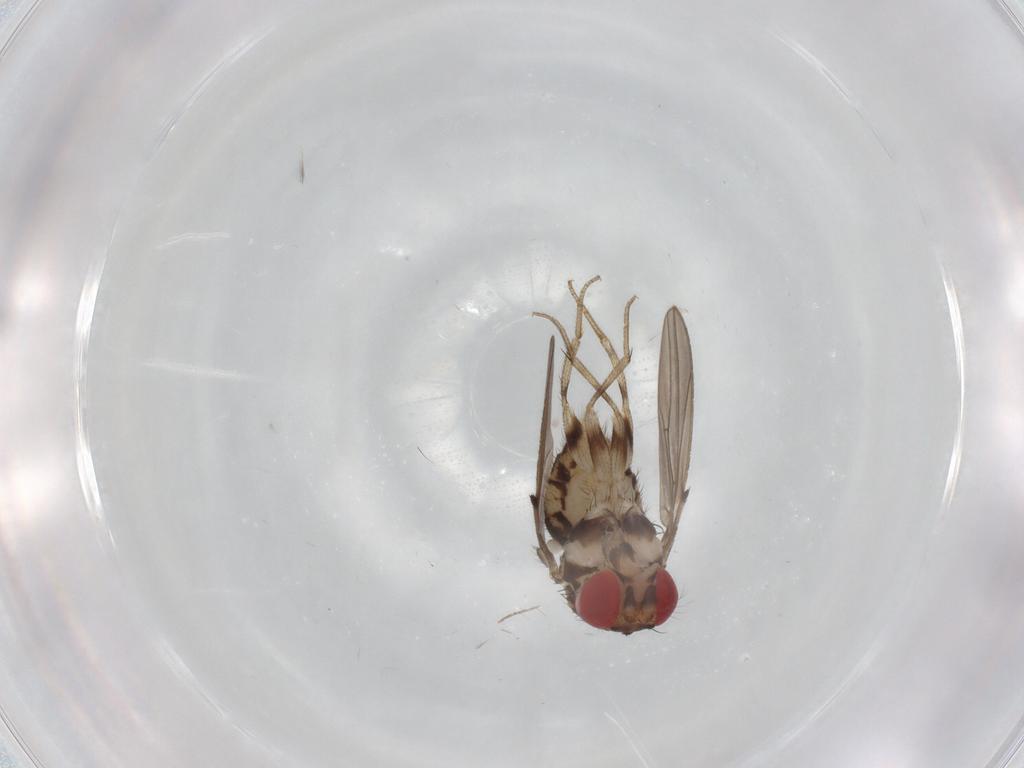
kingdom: Animalia
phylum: Arthropoda
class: Insecta
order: Diptera
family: Drosophilidae
